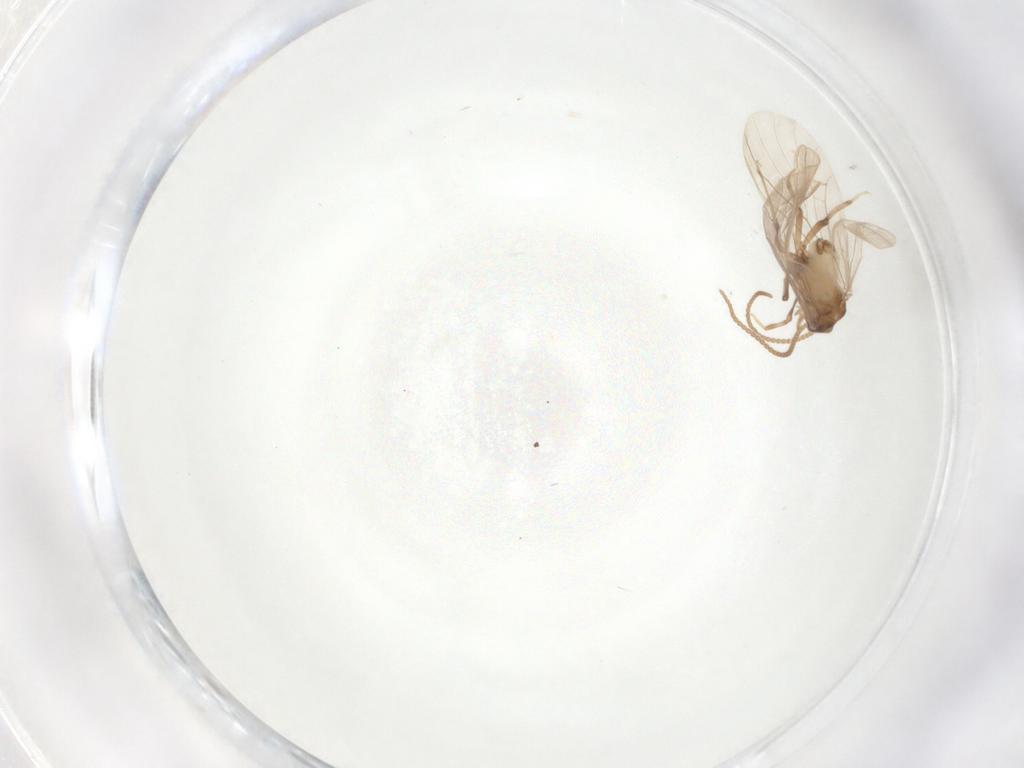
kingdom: Animalia
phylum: Arthropoda
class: Insecta
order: Neuroptera
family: Coniopterygidae
